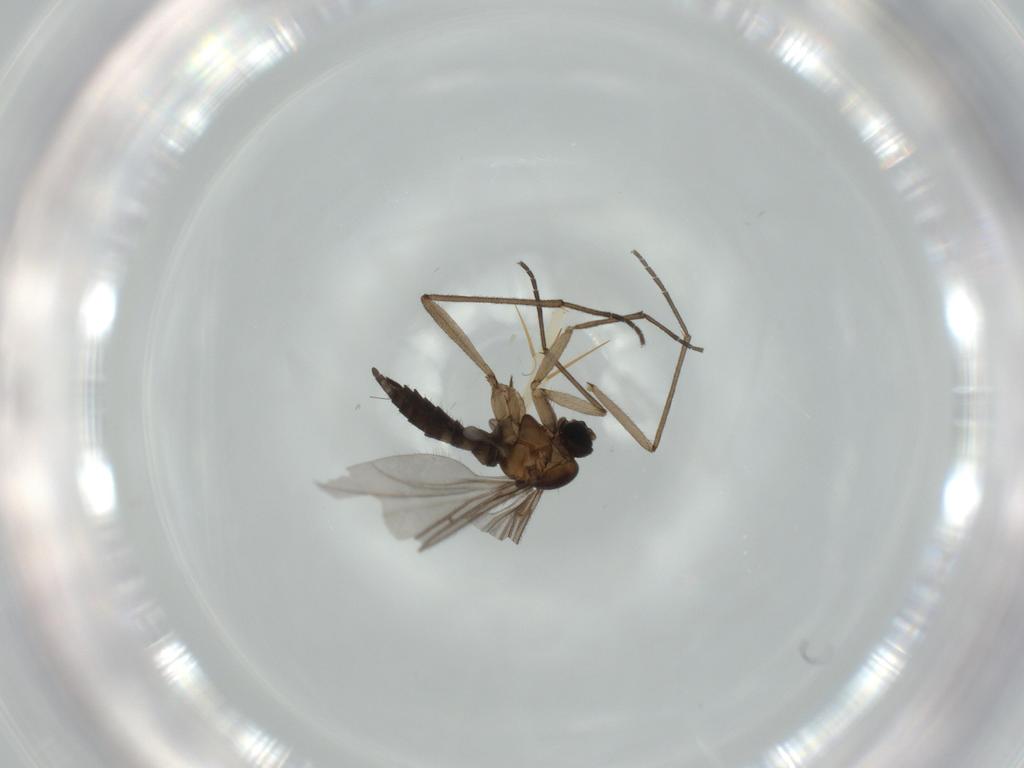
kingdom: Animalia
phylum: Arthropoda
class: Insecta
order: Diptera
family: Sciaridae
